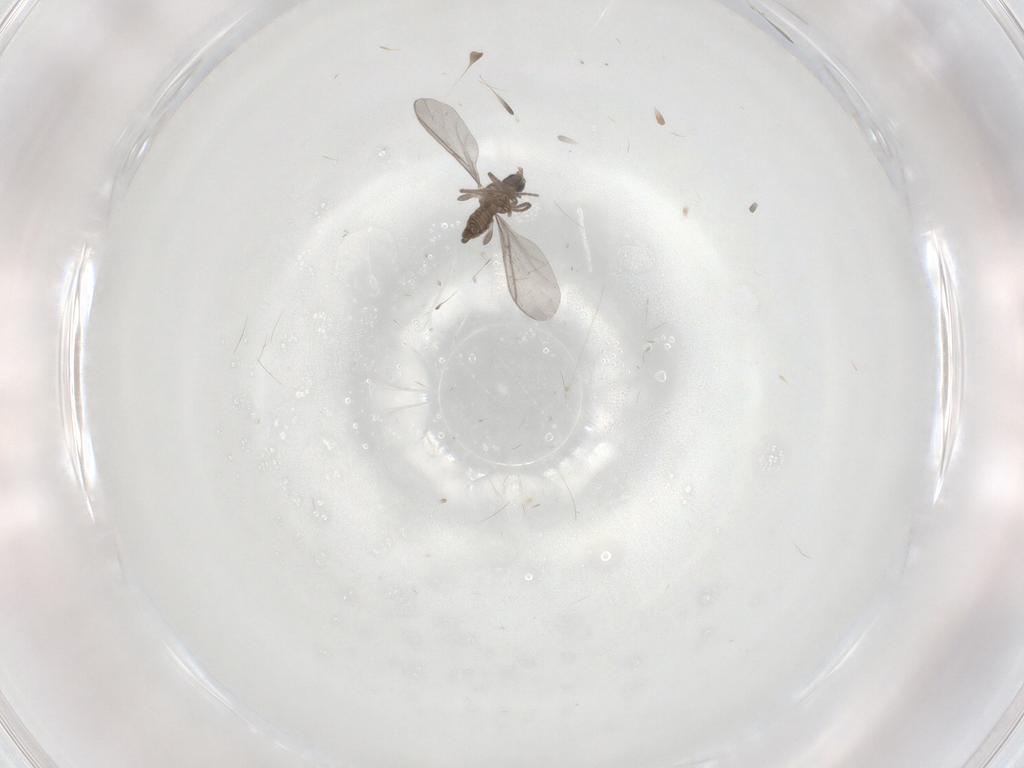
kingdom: Animalia
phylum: Arthropoda
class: Insecta
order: Diptera
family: Sciaridae
